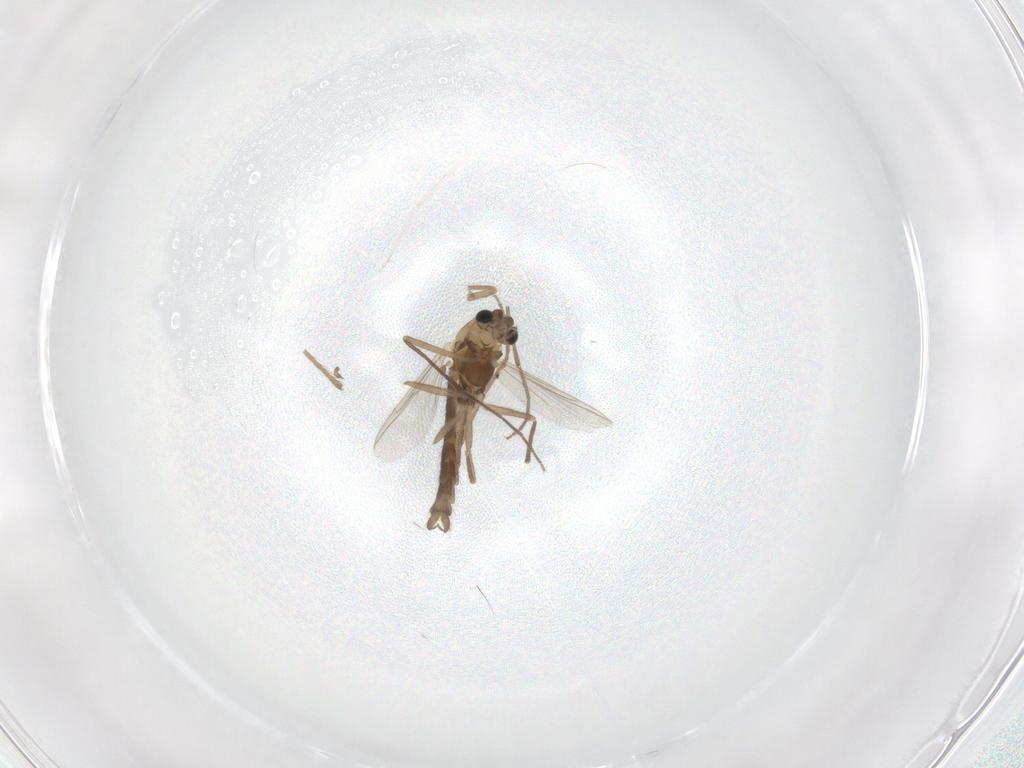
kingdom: Animalia
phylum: Arthropoda
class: Insecta
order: Diptera
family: Chironomidae
